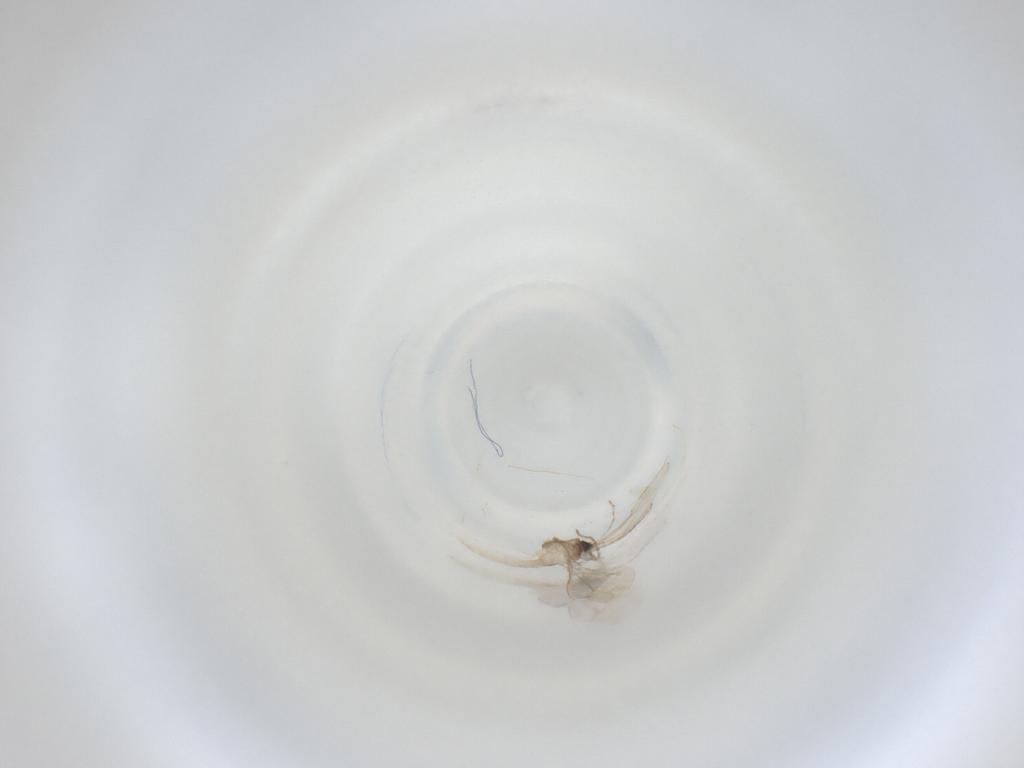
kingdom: Animalia
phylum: Arthropoda
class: Insecta
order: Diptera
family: Cecidomyiidae
